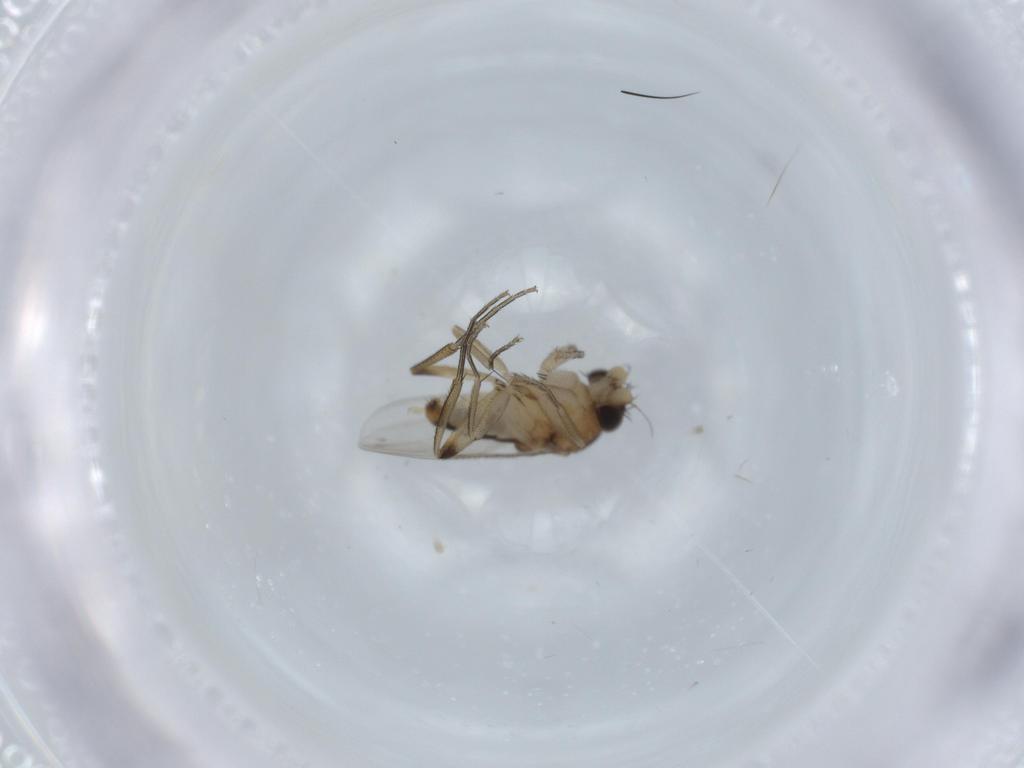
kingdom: Animalia
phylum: Arthropoda
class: Insecta
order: Diptera
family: Phoridae
